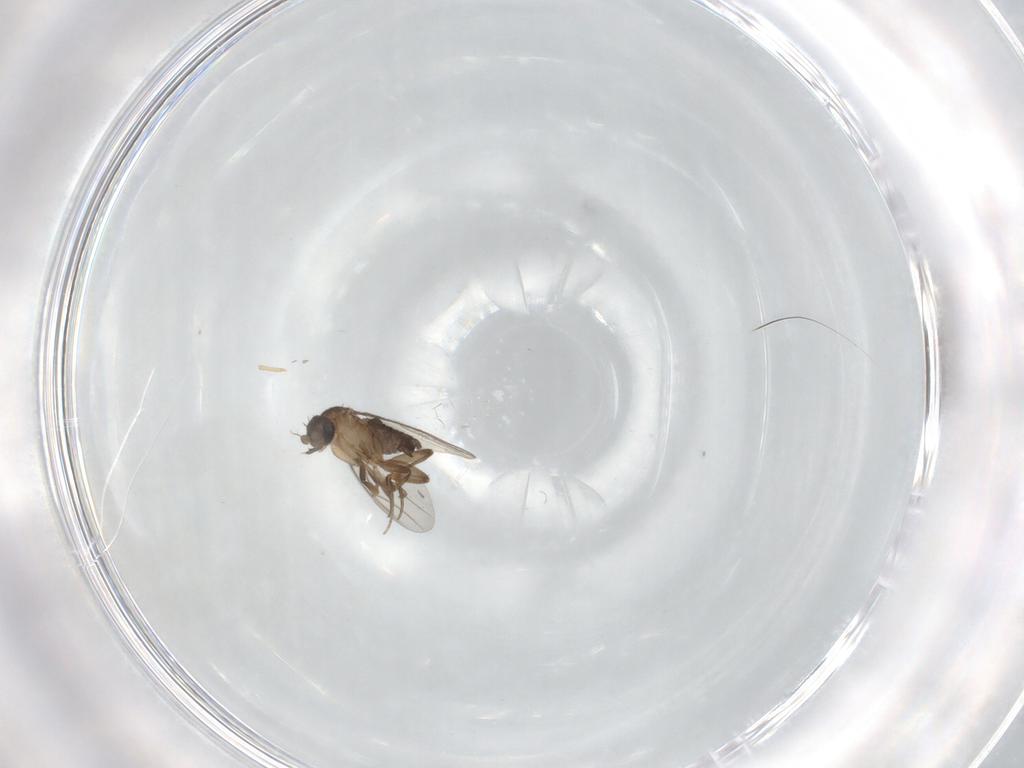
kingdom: Animalia
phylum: Arthropoda
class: Insecta
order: Diptera
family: Phoridae
